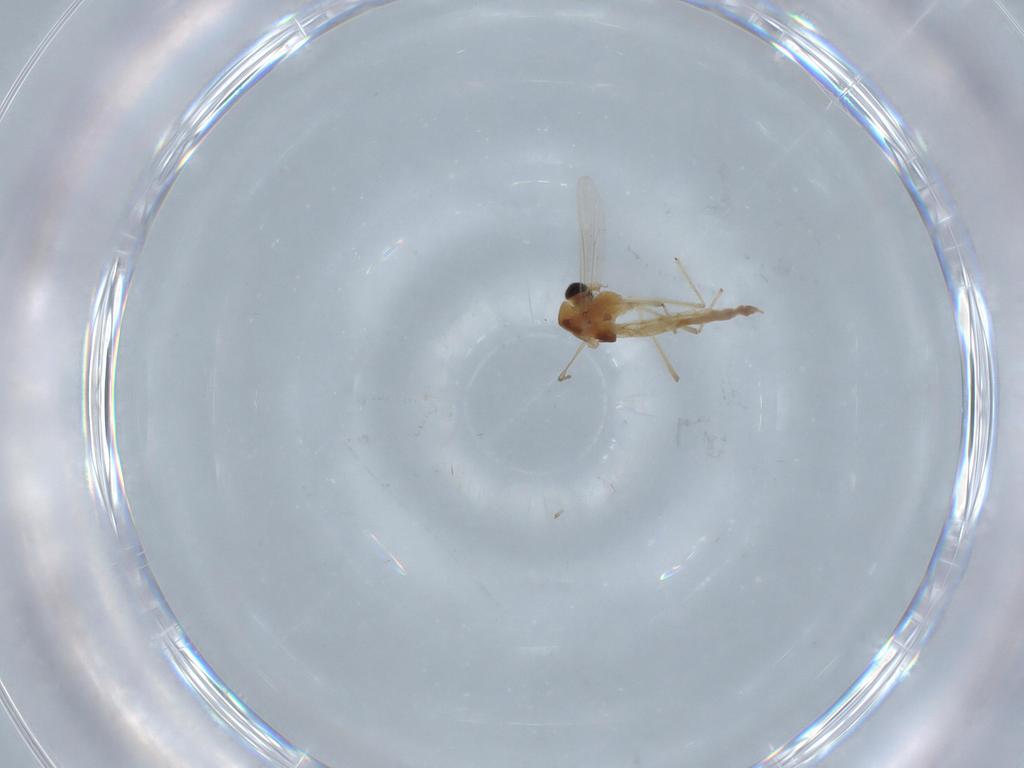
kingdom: Animalia
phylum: Arthropoda
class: Insecta
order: Diptera
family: Chironomidae
